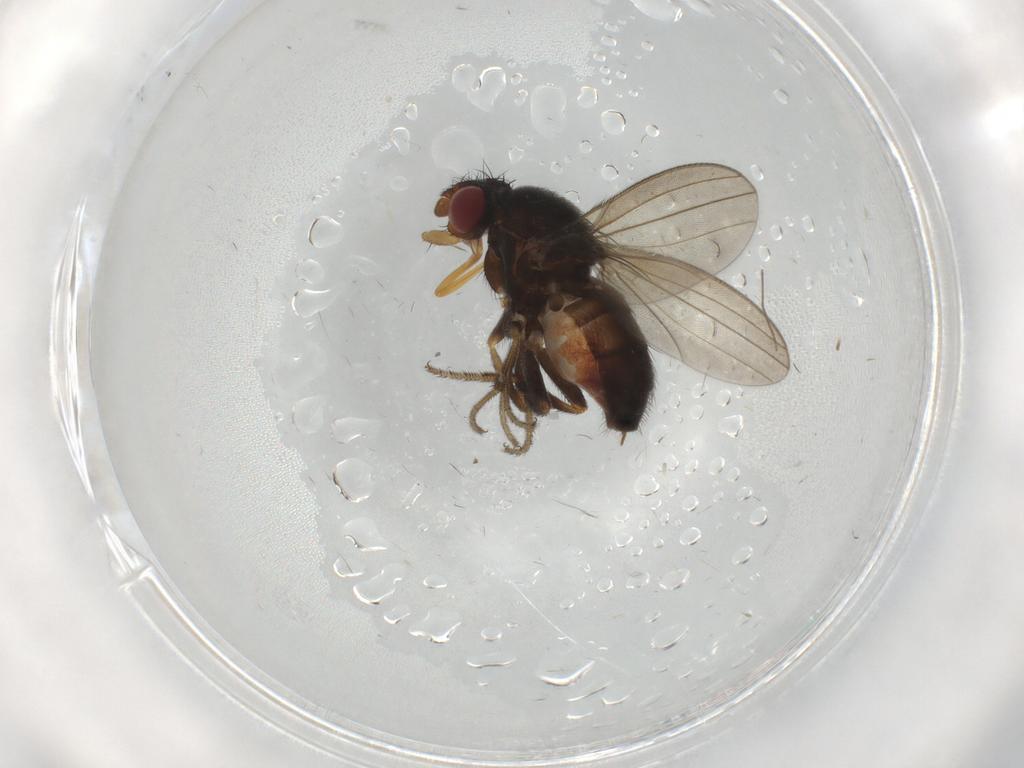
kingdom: Animalia
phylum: Arthropoda
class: Insecta
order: Diptera
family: Milichiidae
